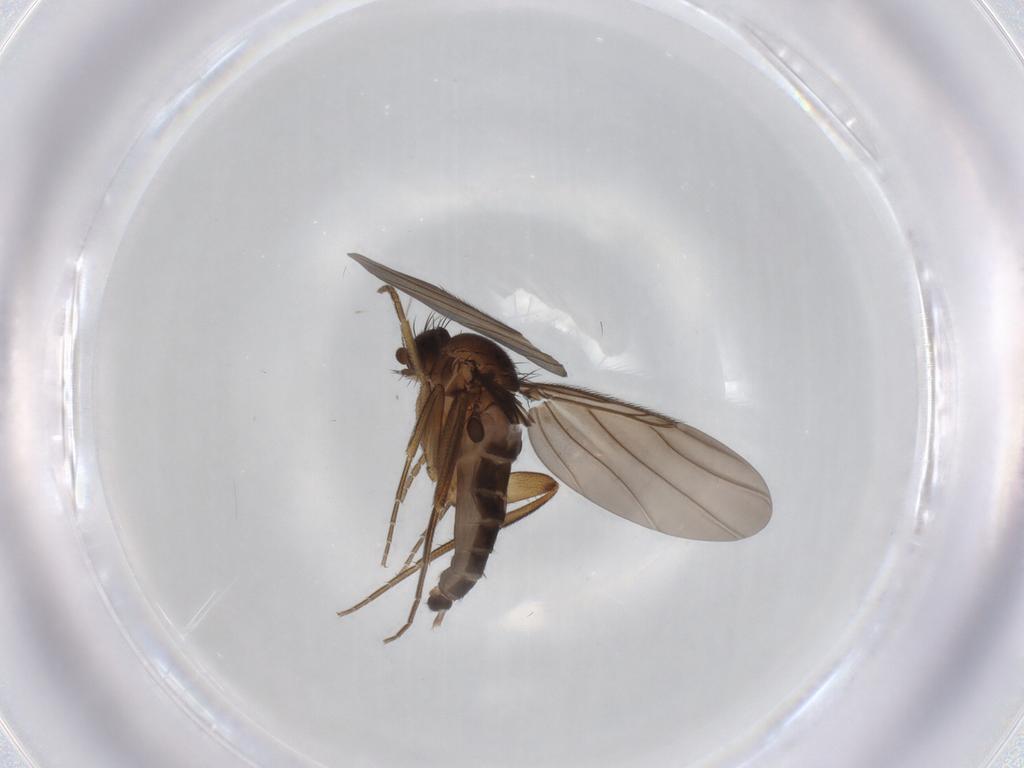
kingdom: Animalia
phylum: Arthropoda
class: Insecta
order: Diptera
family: Phoridae
